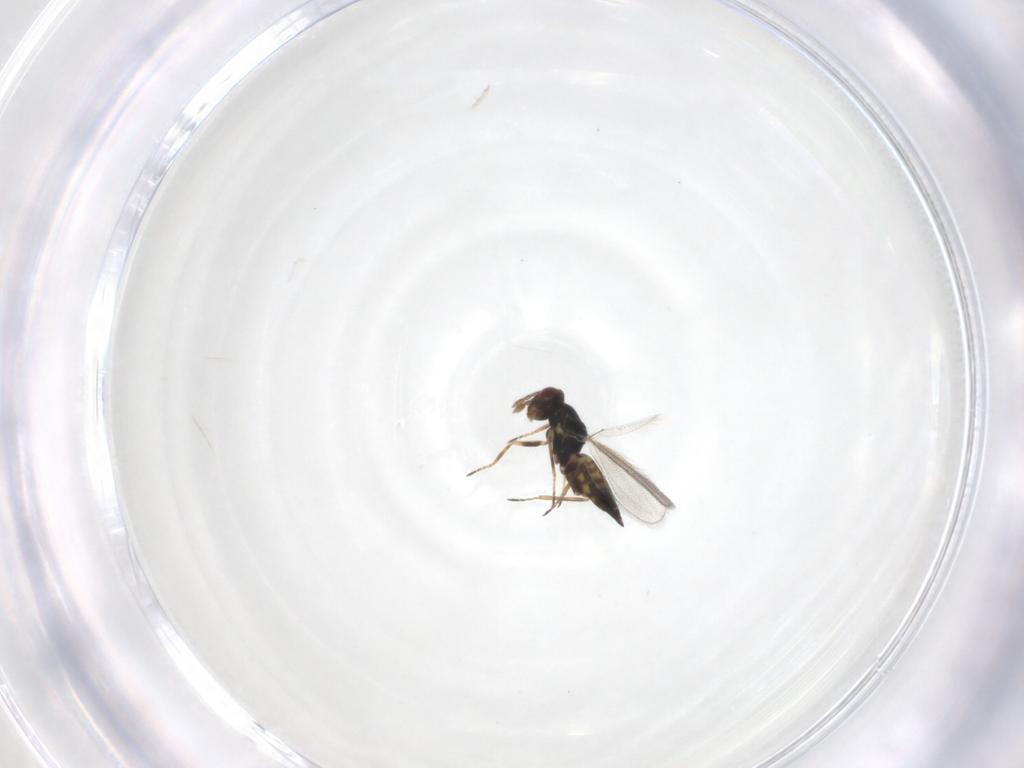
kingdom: Animalia
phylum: Arthropoda
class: Insecta
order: Hymenoptera
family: Eulophidae
